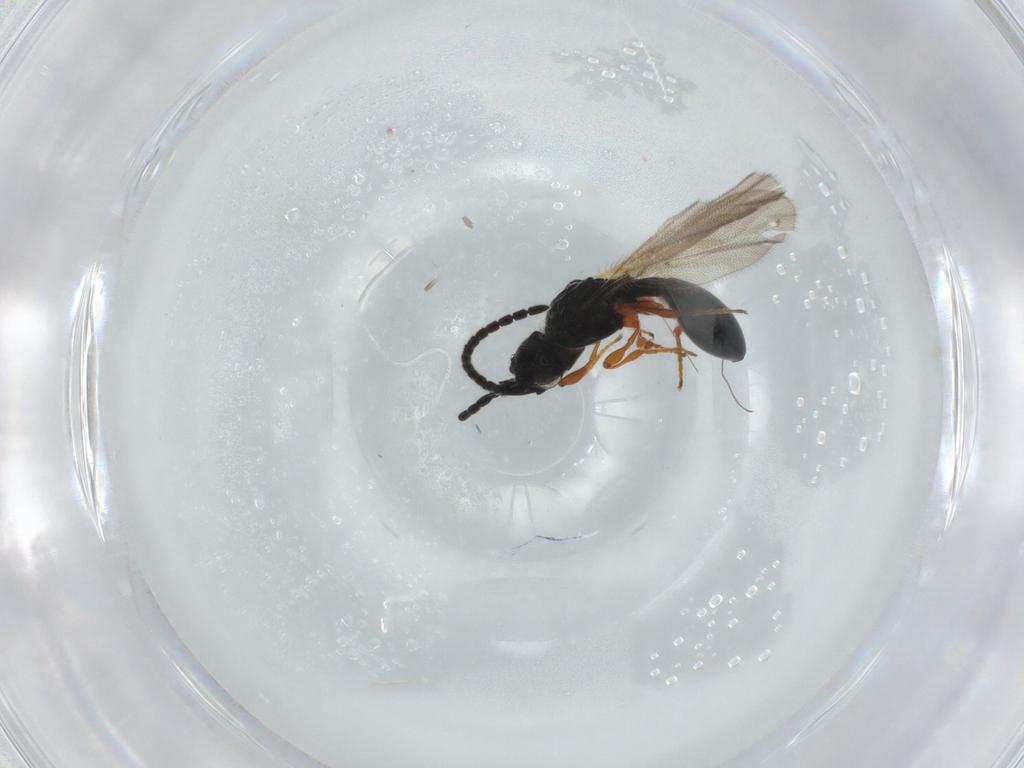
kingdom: Animalia
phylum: Arthropoda
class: Insecta
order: Hymenoptera
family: Diapriidae
